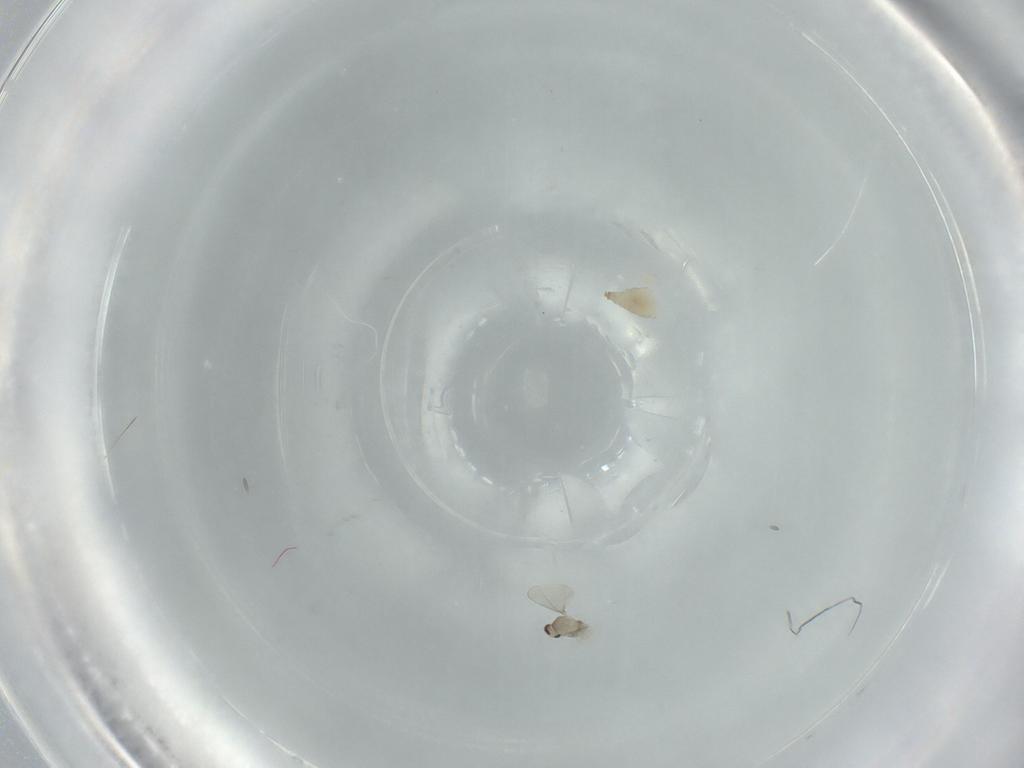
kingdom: Animalia
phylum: Arthropoda
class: Insecta
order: Diptera
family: Cecidomyiidae
